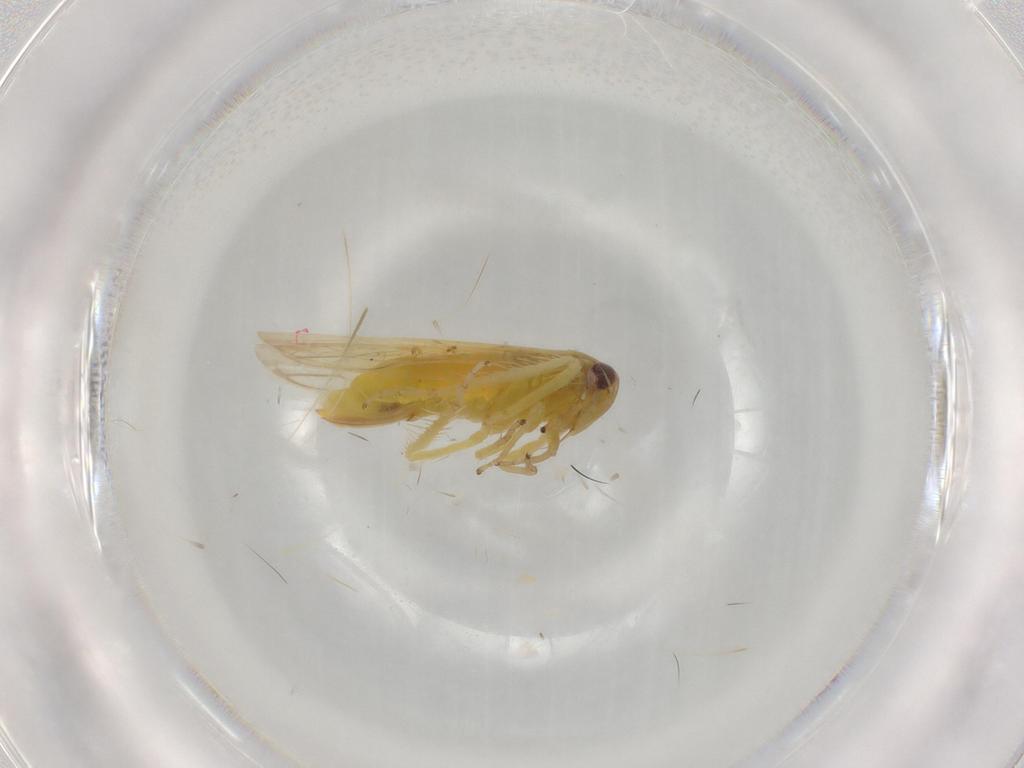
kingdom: Animalia
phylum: Arthropoda
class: Insecta
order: Hemiptera
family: Cicadellidae
